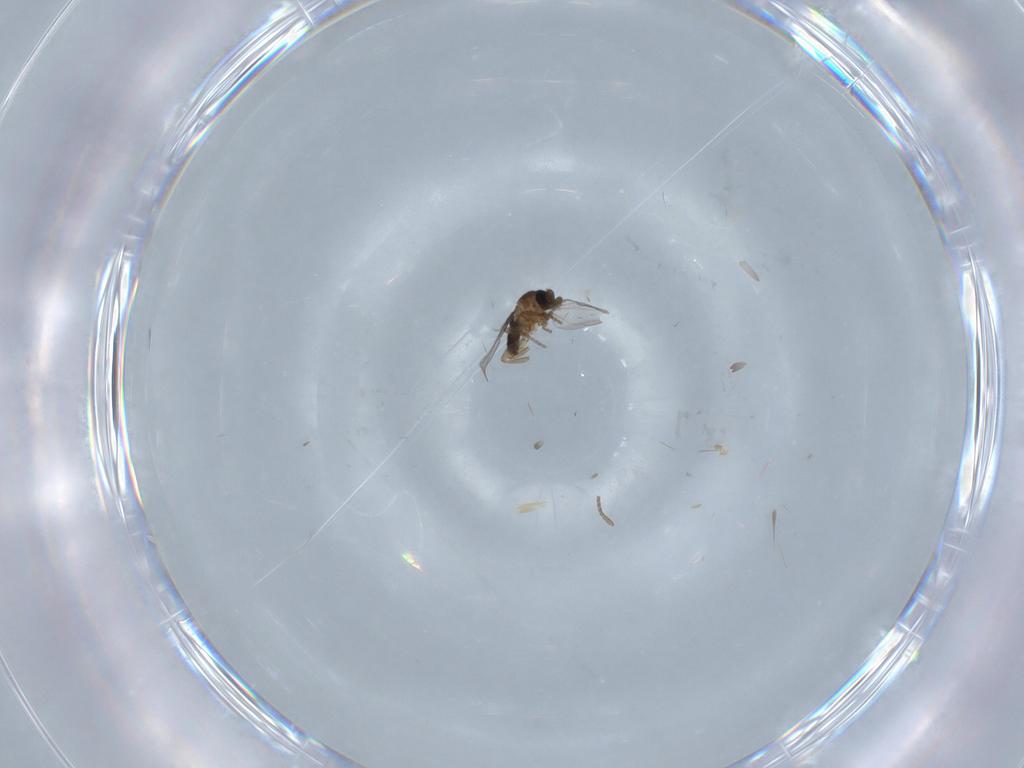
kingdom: Animalia
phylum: Arthropoda
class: Insecta
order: Diptera
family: Phoridae
